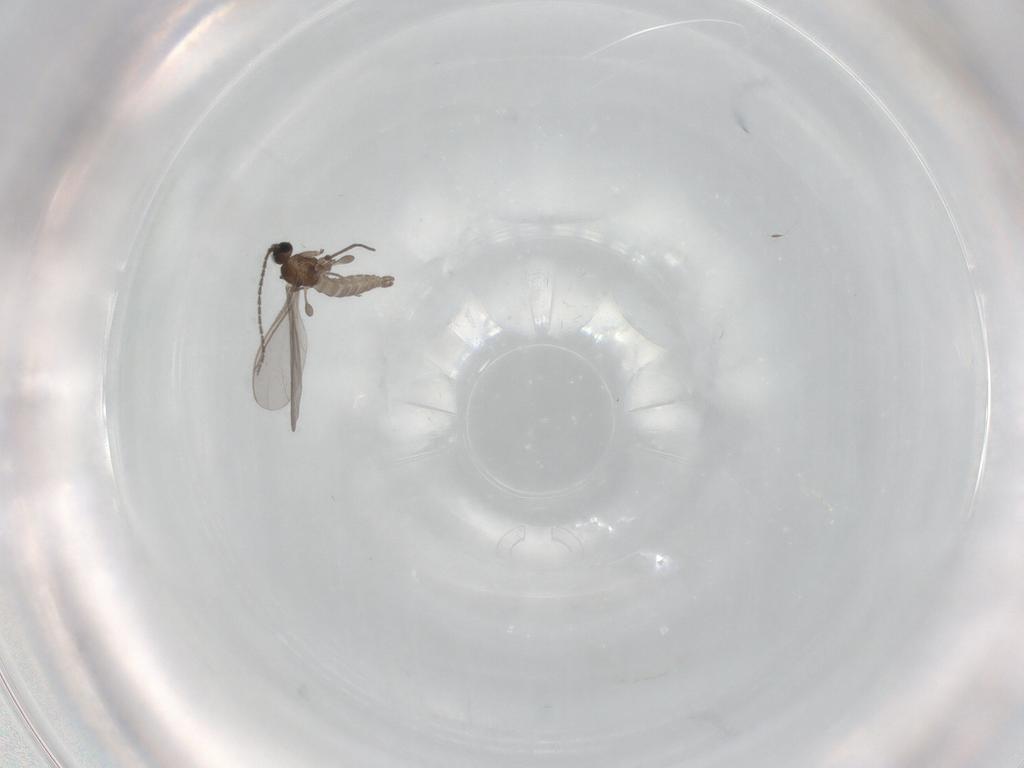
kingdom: Animalia
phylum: Arthropoda
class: Insecta
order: Diptera
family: Sciaridae
